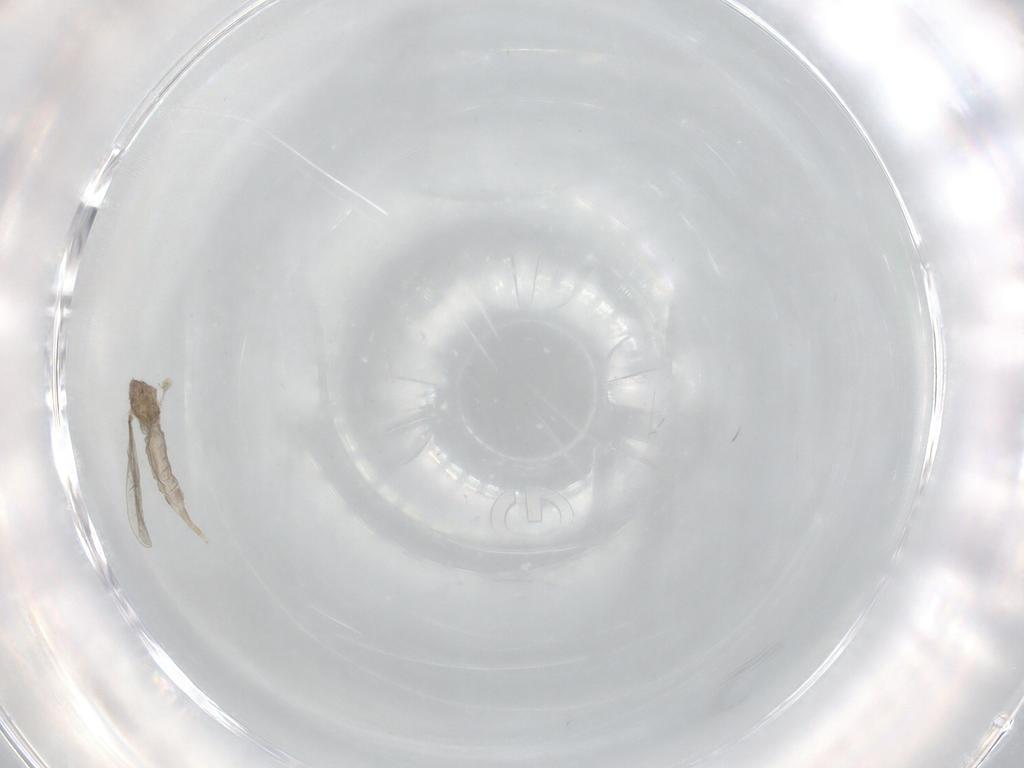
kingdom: Animalia
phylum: Arthropoda
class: Insecta
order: Diptera
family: Cecidomyiidae
